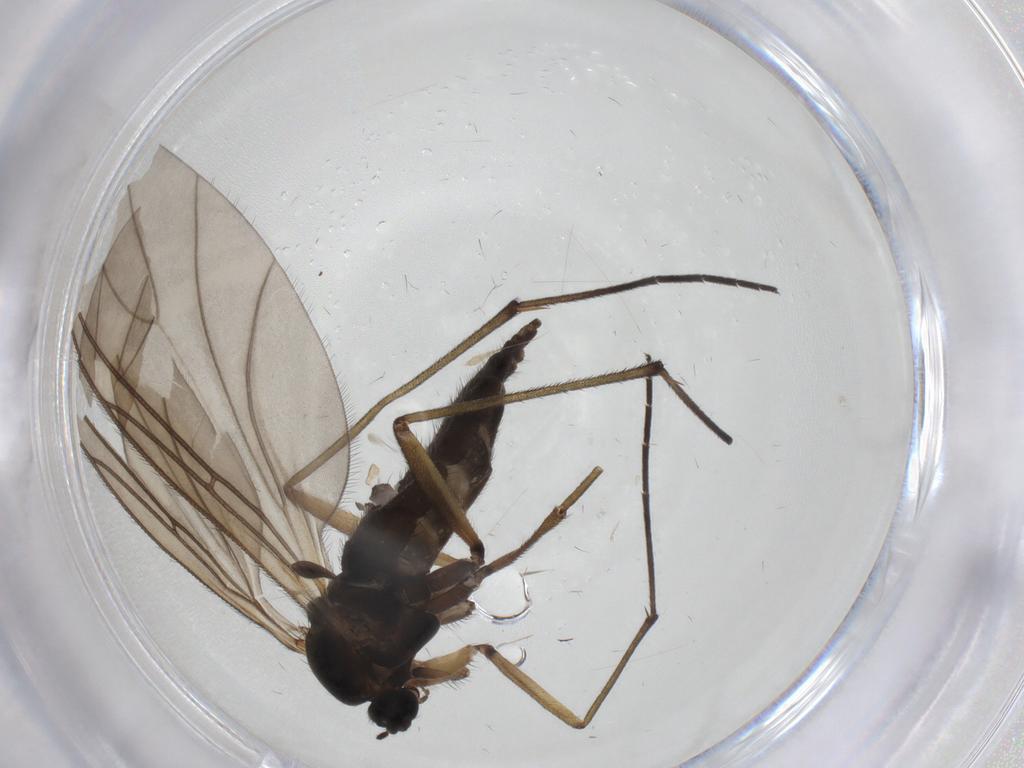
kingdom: Animalia
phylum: Arthropoda
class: Insecta
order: Diptera
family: Sciaridae
